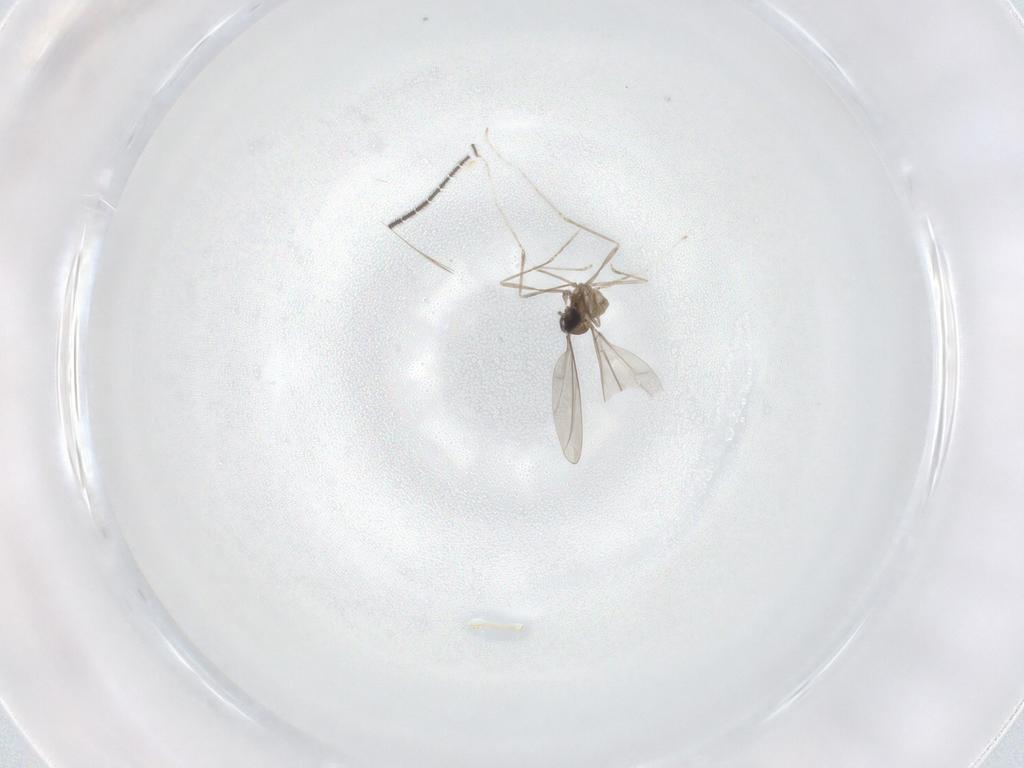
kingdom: Animalia
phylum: Arthropoda
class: Insecta
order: Diptera
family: Cecidomyiidae
